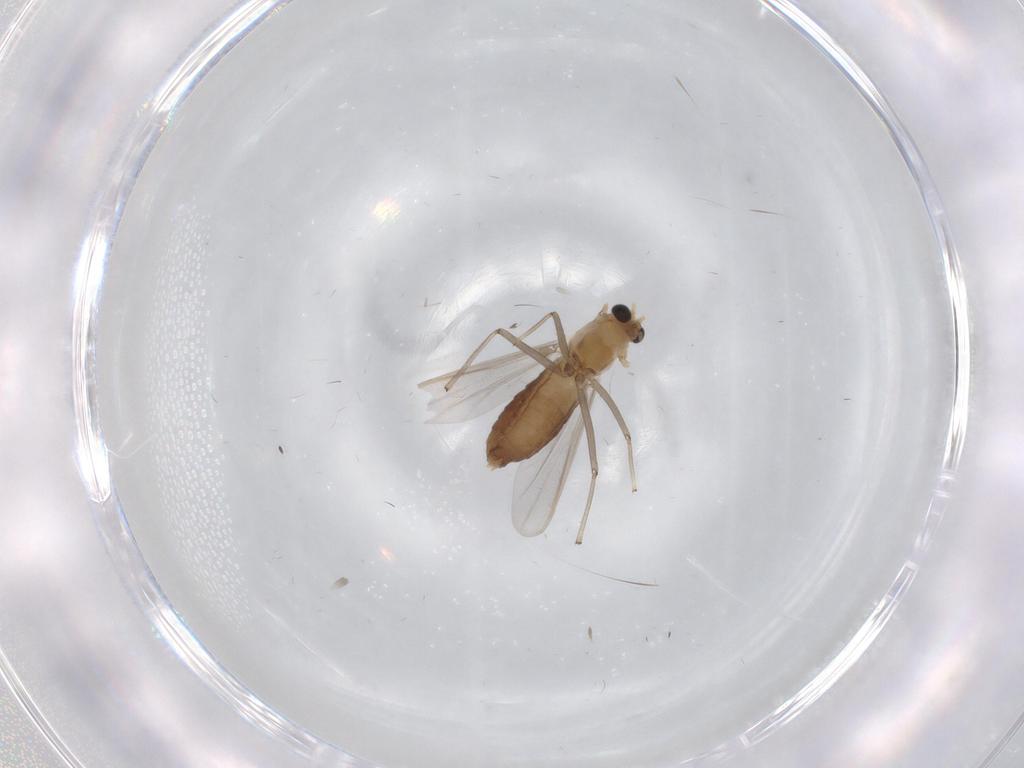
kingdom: Animalia
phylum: Arthropoda
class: Insecta
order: Diptera
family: Chironomidae
